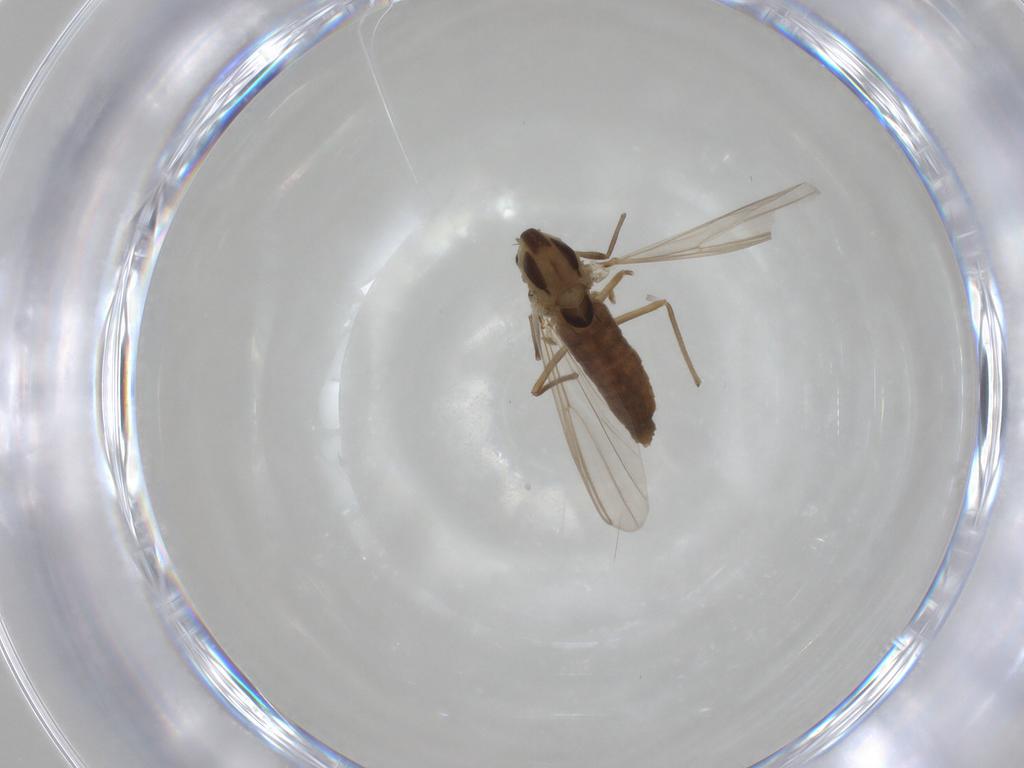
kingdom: Animalia
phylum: Arthropoda
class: Insecta
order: Diptera
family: Chironomidae
